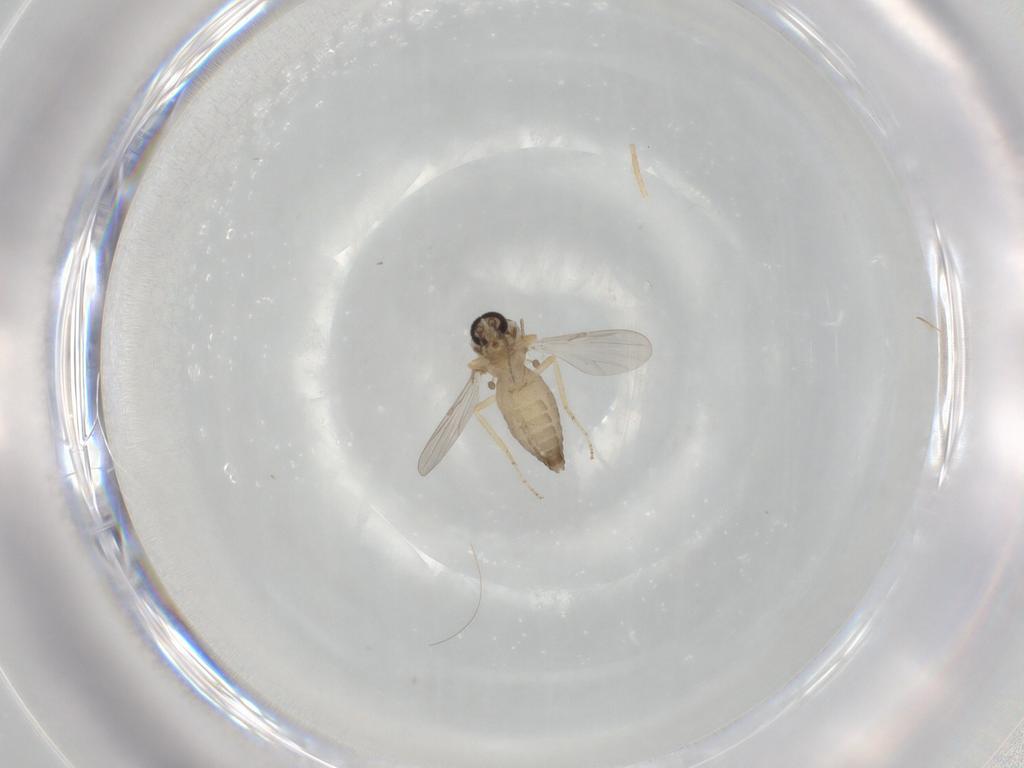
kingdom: Animalia
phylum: Arthropoda
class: Insecta
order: Diptera
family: Ceratopogonidae
